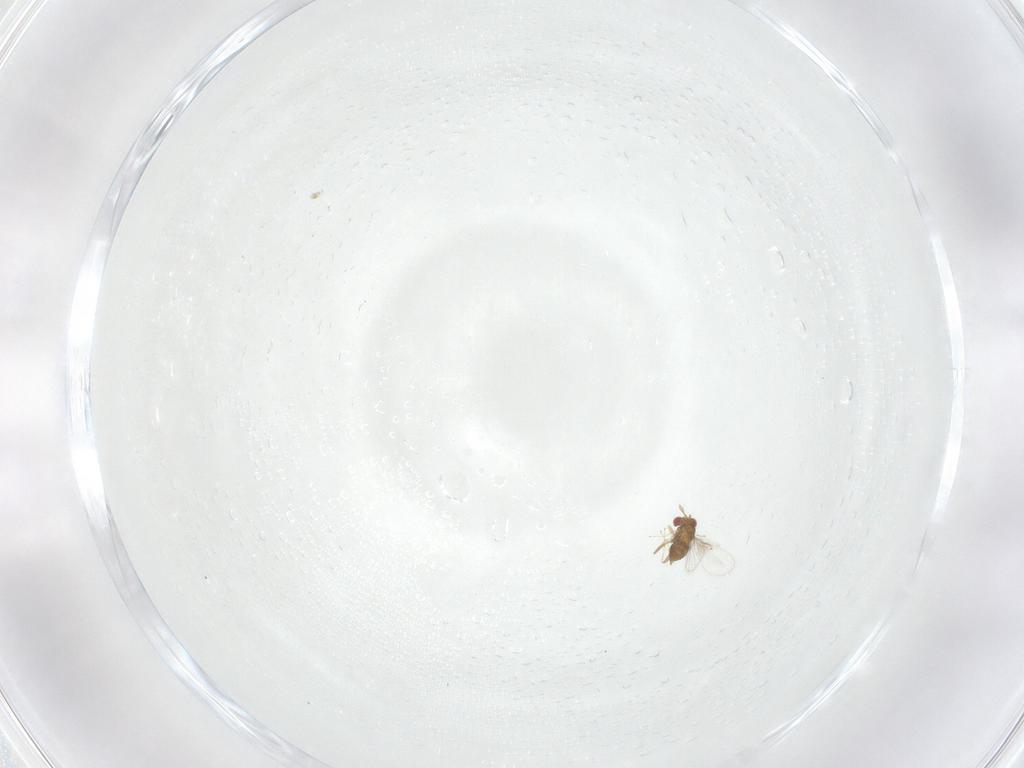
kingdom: Animalia
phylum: Arthropoda
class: Insecta
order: Hymenoptera
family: Trichogrammatidae
